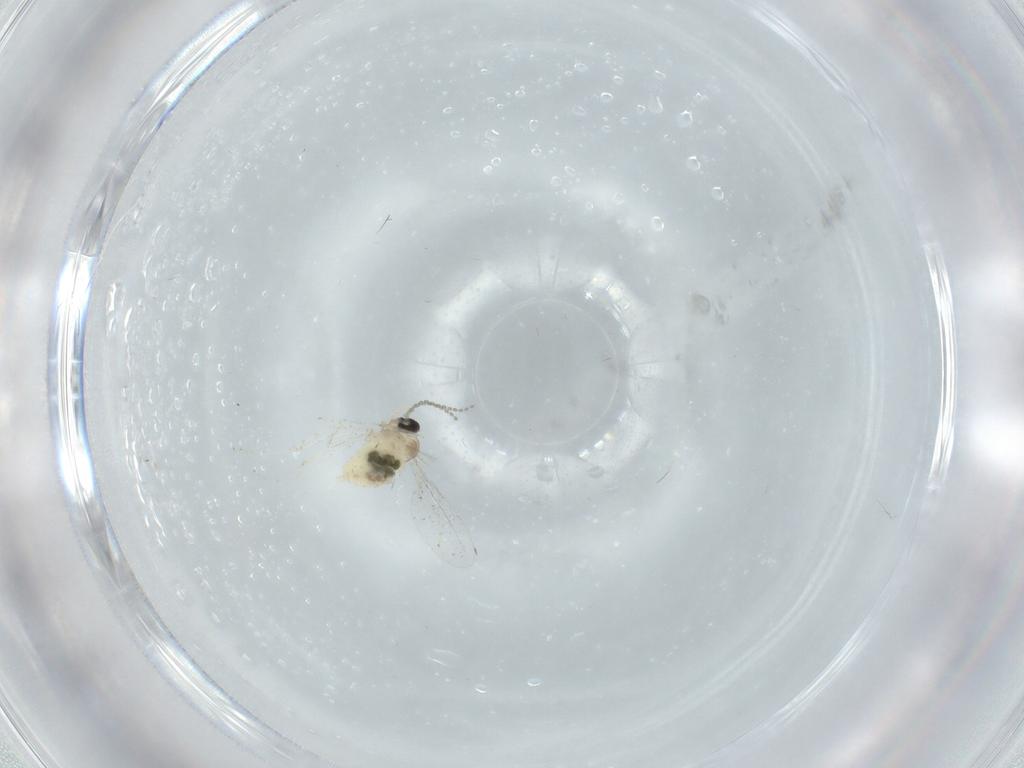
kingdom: Animalia
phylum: Arthropoda
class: Insecta
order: Diptera
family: Cecidomyiidae
